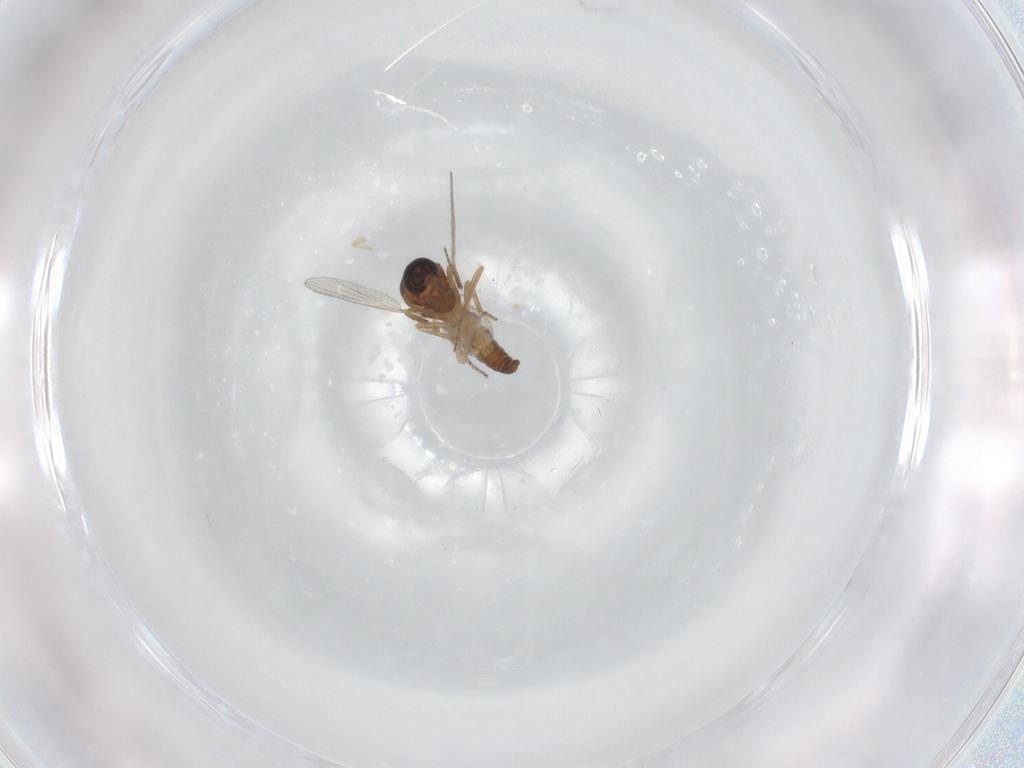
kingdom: Animalia
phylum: Arthropoda
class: Insecta
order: Diptera
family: Ceratopogonidae
